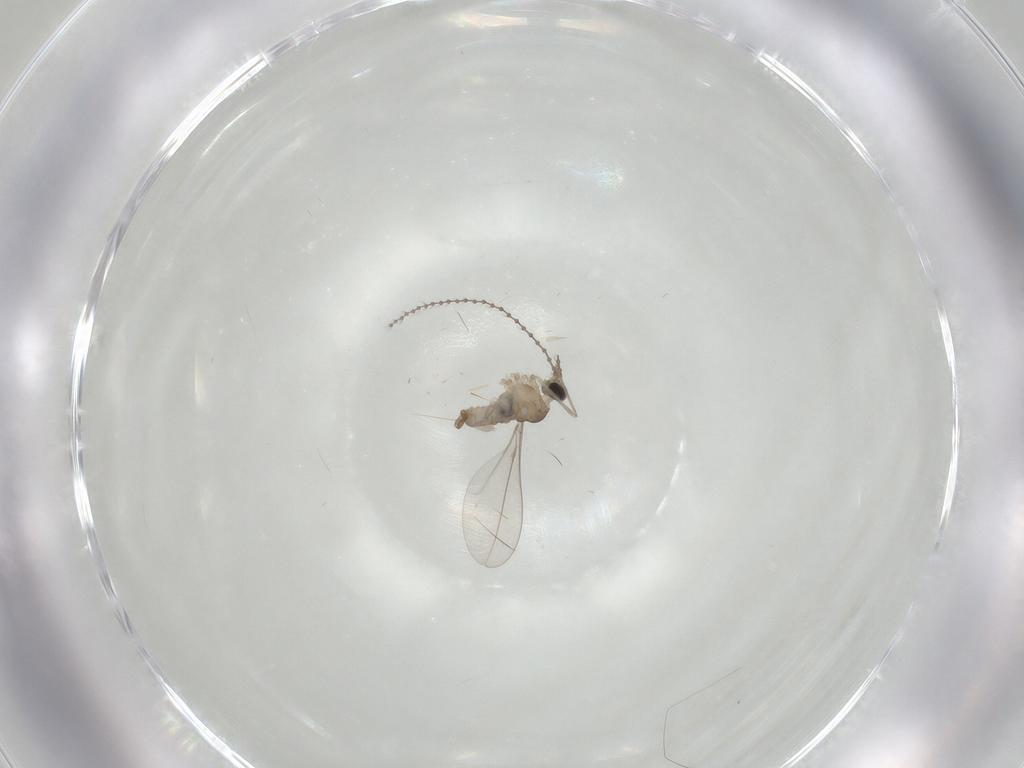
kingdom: Animalia
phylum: Arthropoda
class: Insecta
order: Diptera
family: Cecidomyiidae
